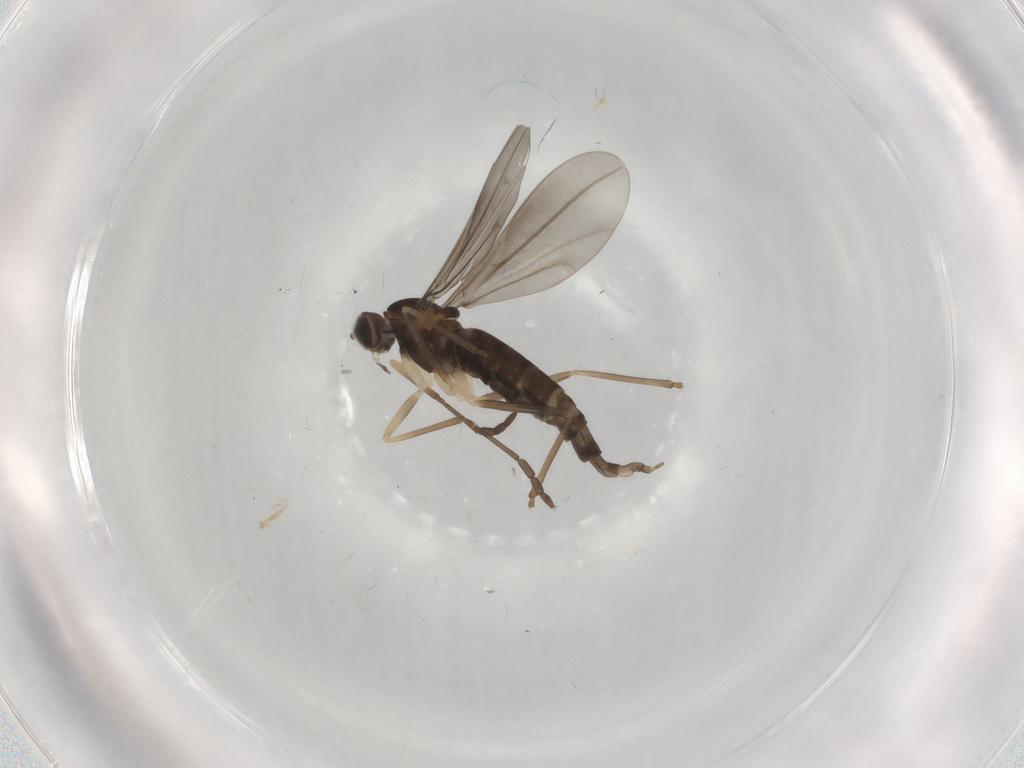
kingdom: Animalia
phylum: Arthropoda
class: Insecta
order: Diptera
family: Cecidomyiidae
